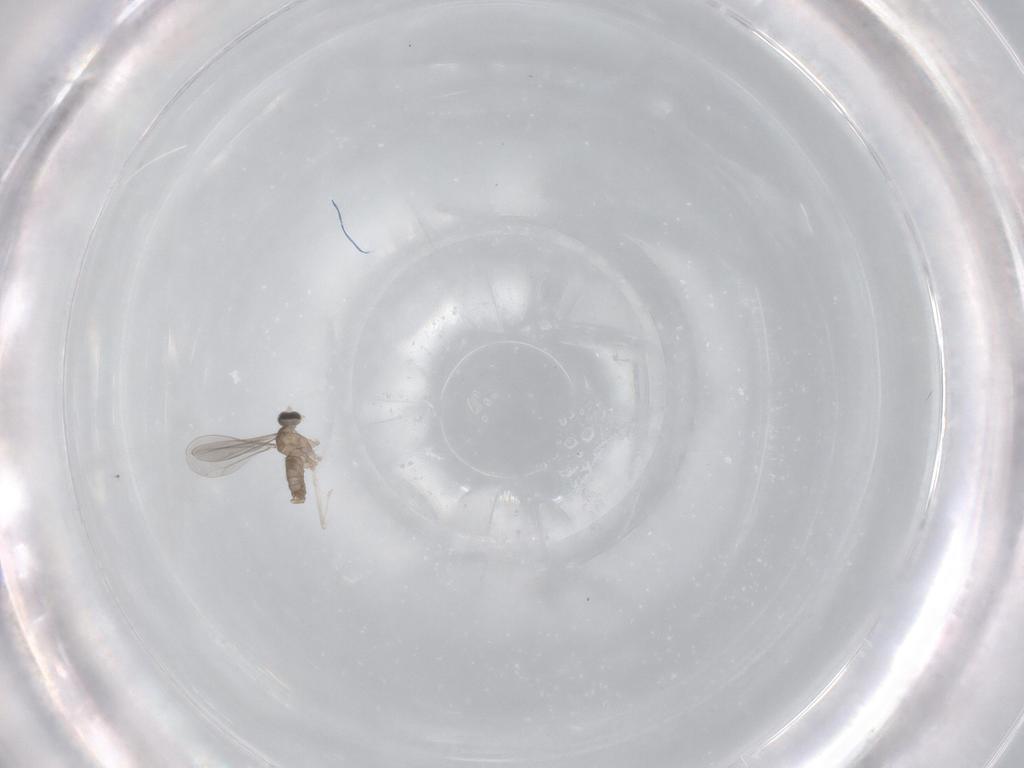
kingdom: Animalia
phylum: Arthropoda
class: Insecta
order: Diptera
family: Cecidomyiidae
